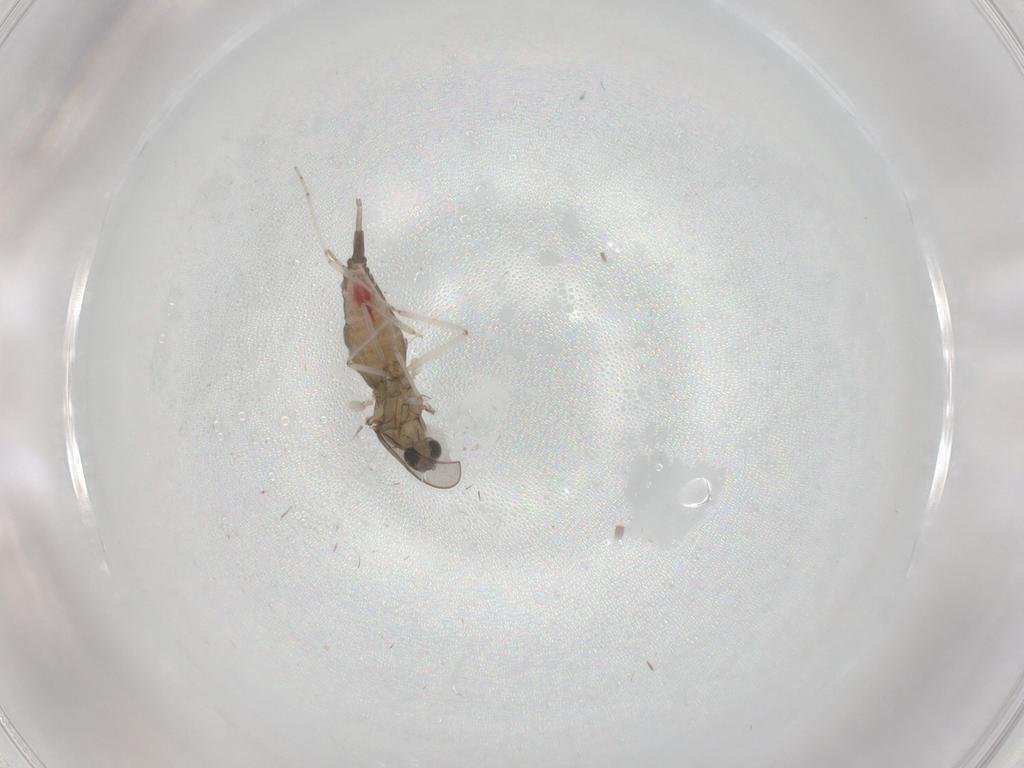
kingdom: Animalia
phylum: Arthropoda
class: Insecta
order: Diptera
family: Cecidomyiidae
